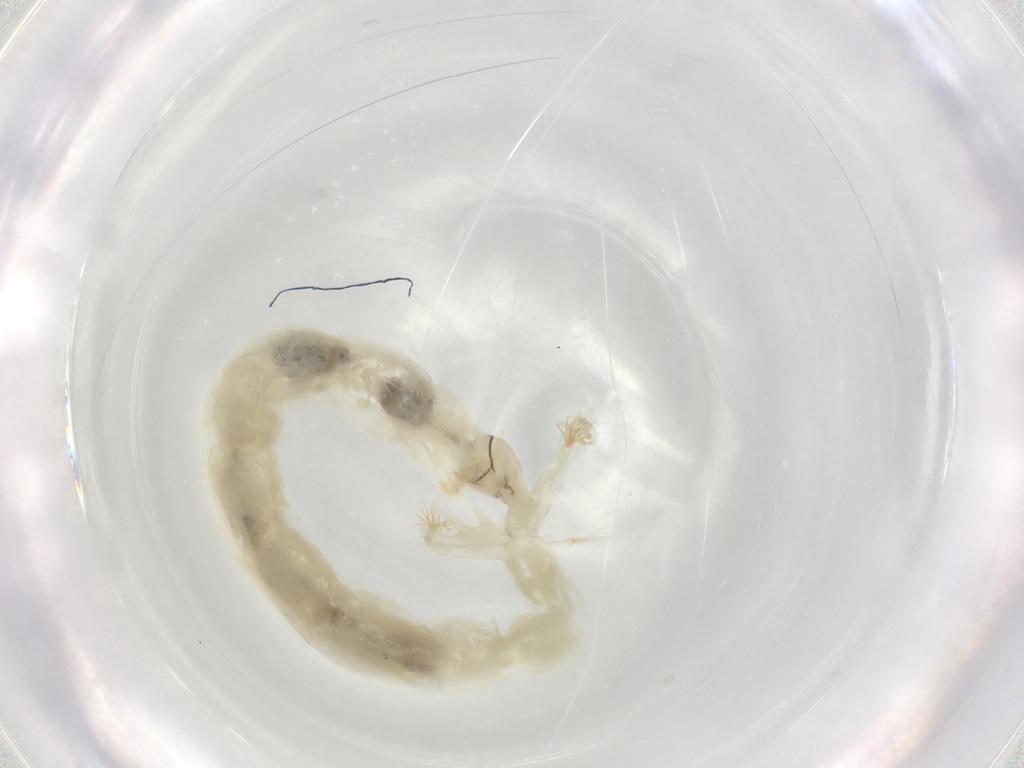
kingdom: Animalia
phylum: Arthropoda
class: Insecta
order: Diptera
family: Chironomidae
